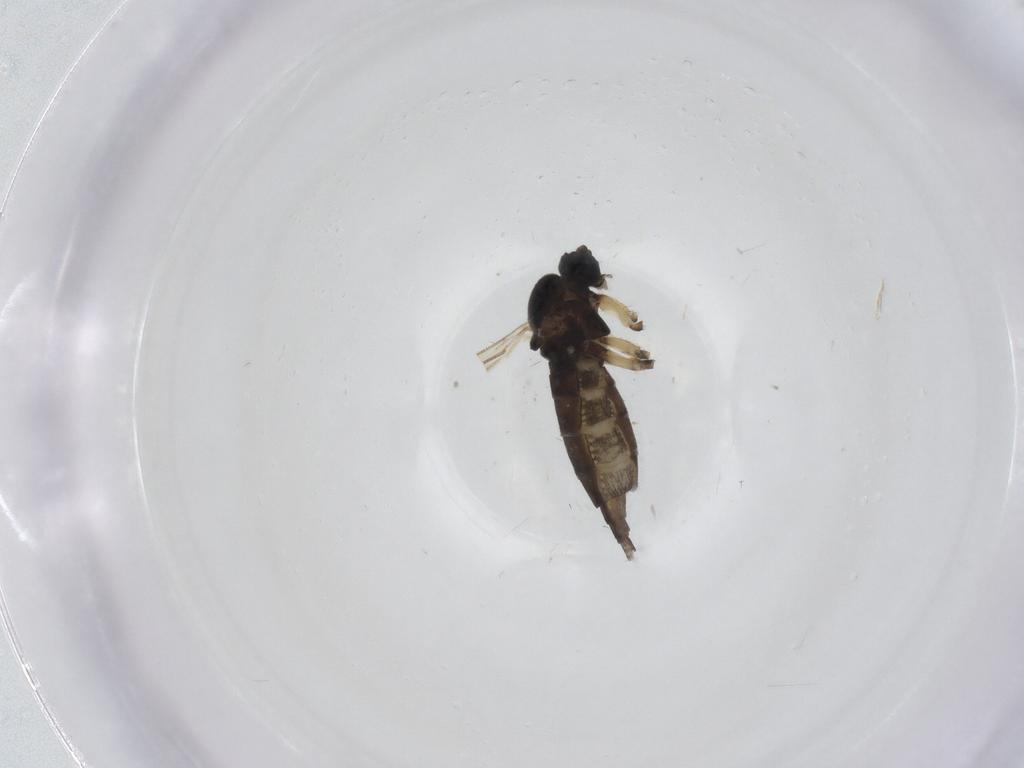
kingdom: Animalia
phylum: Arthropoda
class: Insecta
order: Diptera
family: Sciaridae
